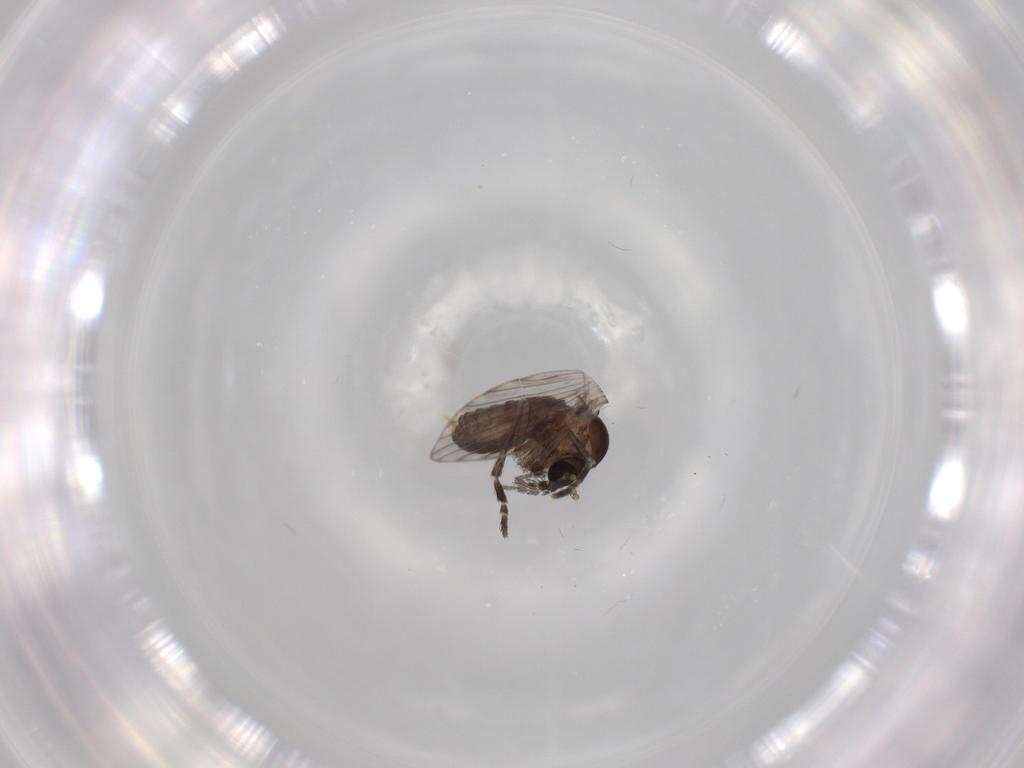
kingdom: Animalia
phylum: Arthropoda
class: Insecta
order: Diptera
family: Psychodidae
